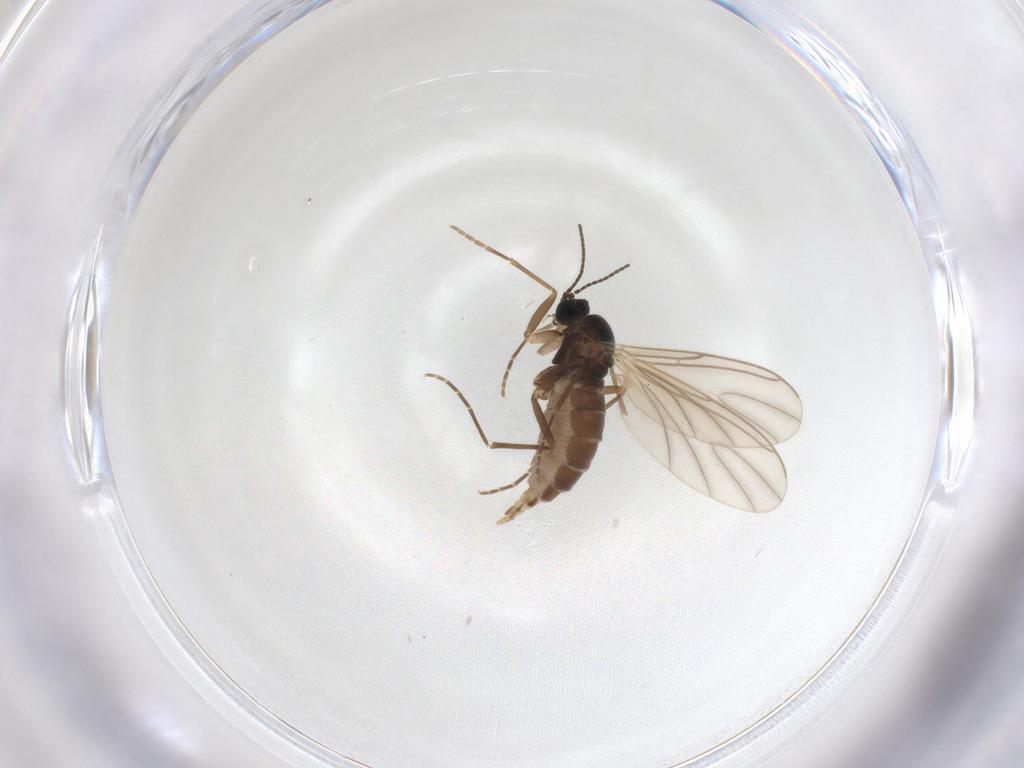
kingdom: Animalia
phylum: Arthropoda
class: Insecta
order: Diptera
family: Sciaridae
